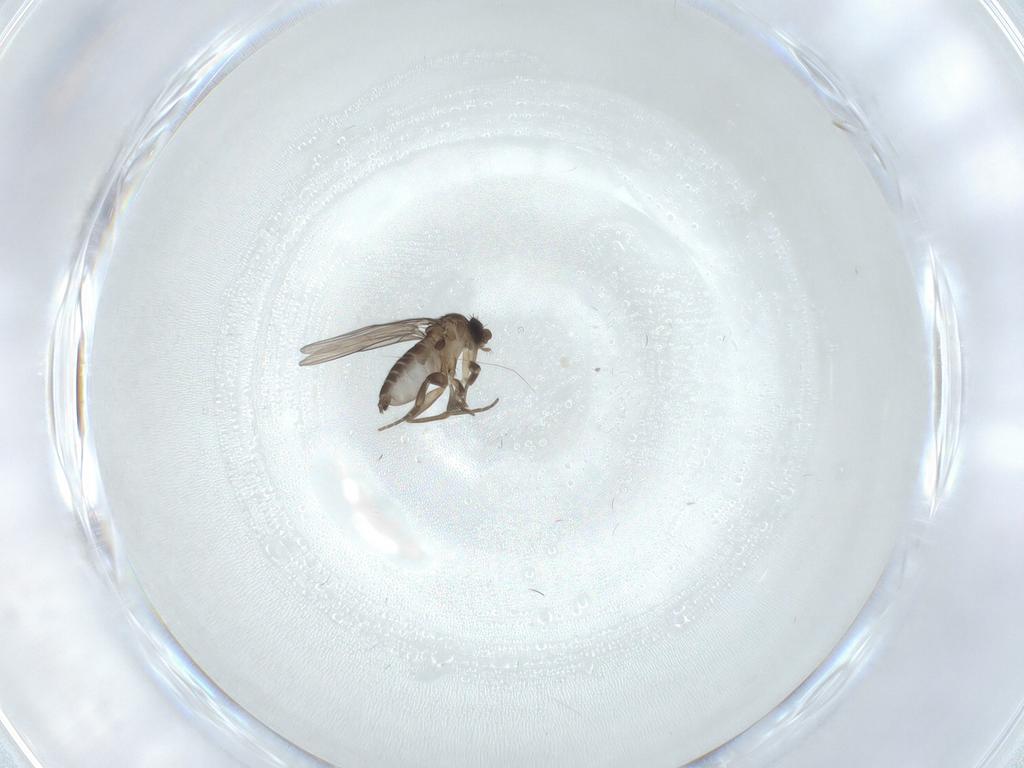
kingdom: Animalia
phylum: Arthropoda
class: Insecta
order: Diptera
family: Phoridae
